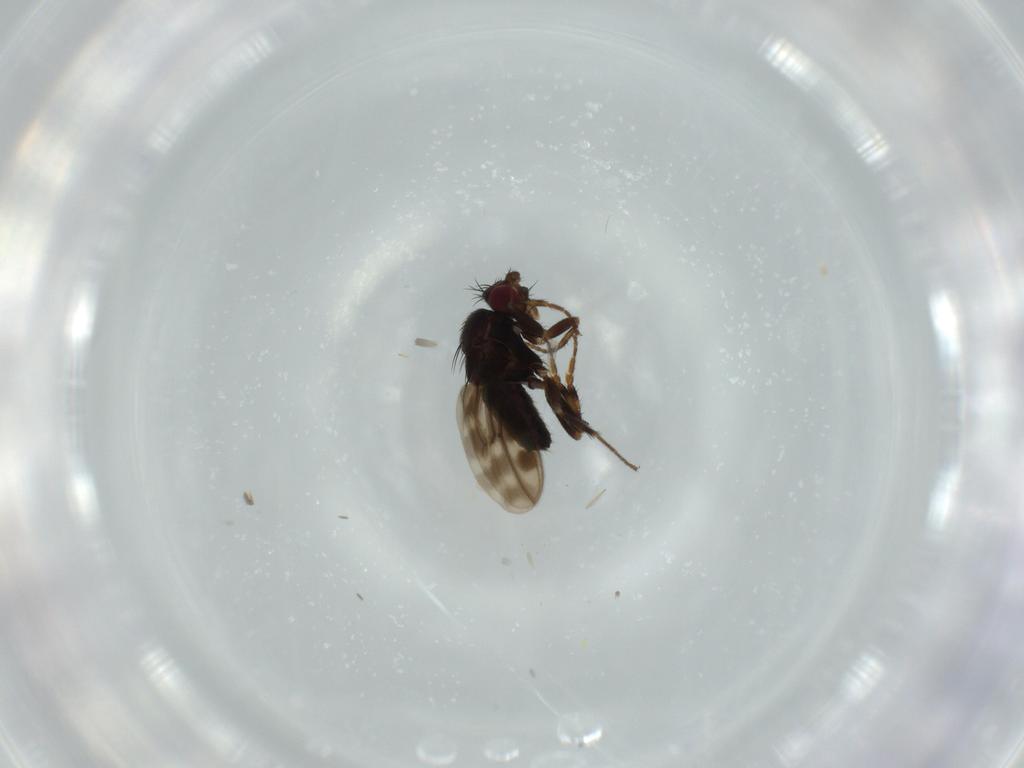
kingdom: Animalia
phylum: Arthropoda
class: Insecta
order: Diptera
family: Sphaeroceridae
